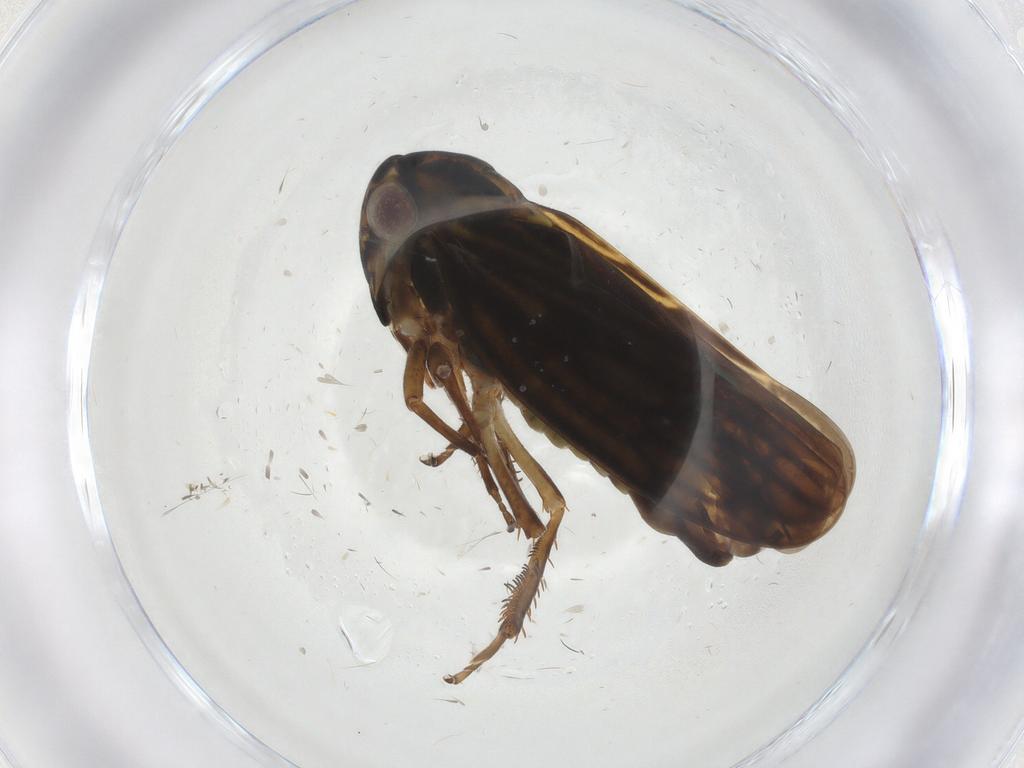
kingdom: Animalia
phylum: Arthropoda
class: Insecta
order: Hemiptera
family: Cicadellidae
